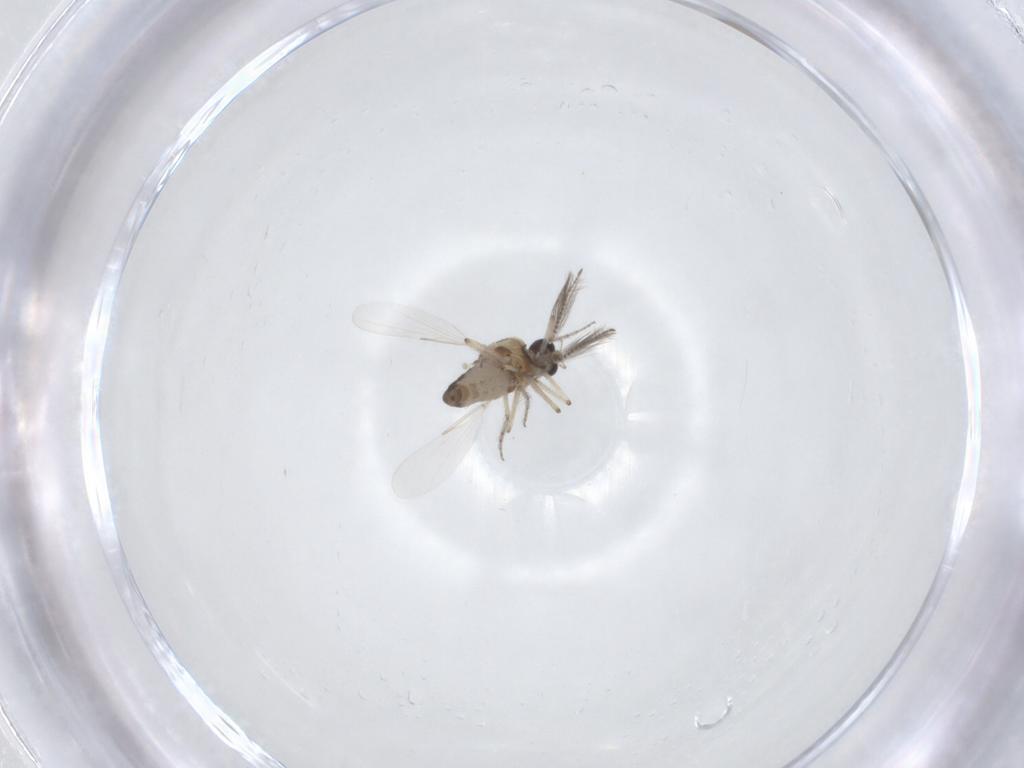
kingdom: Animalia
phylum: Arthropoda
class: Insecta
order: Diptera
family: Ceratopogonidae
